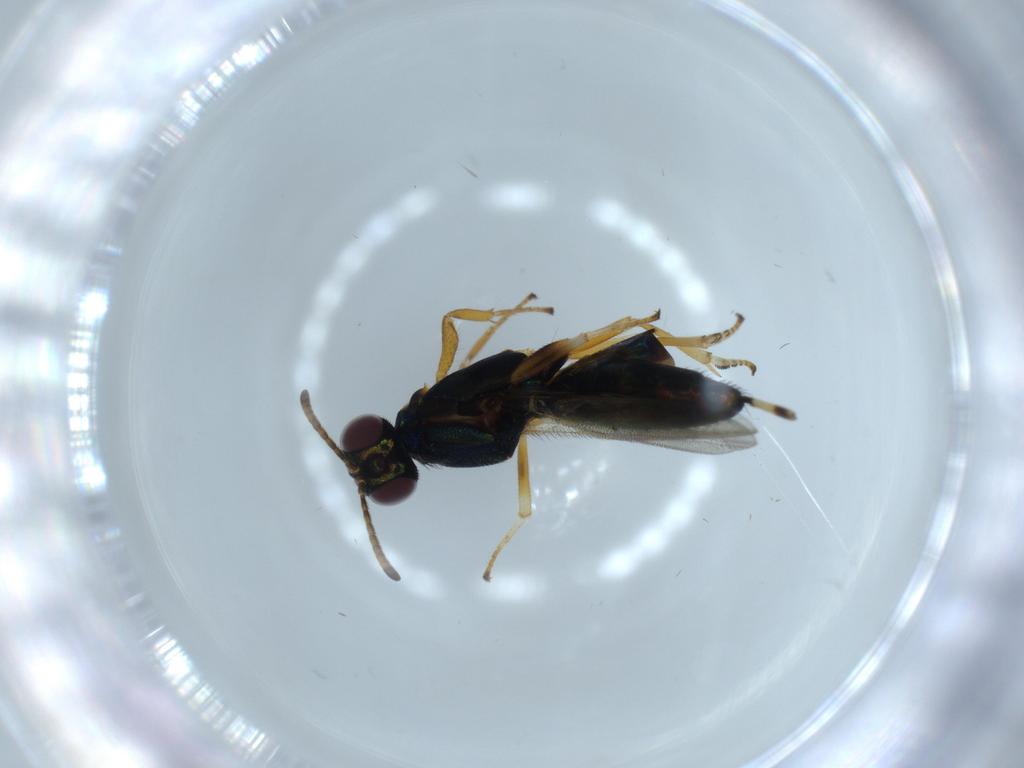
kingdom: Animalia
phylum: Arthropoda
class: Insecta
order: Hymenoptera
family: Eupelmidae
